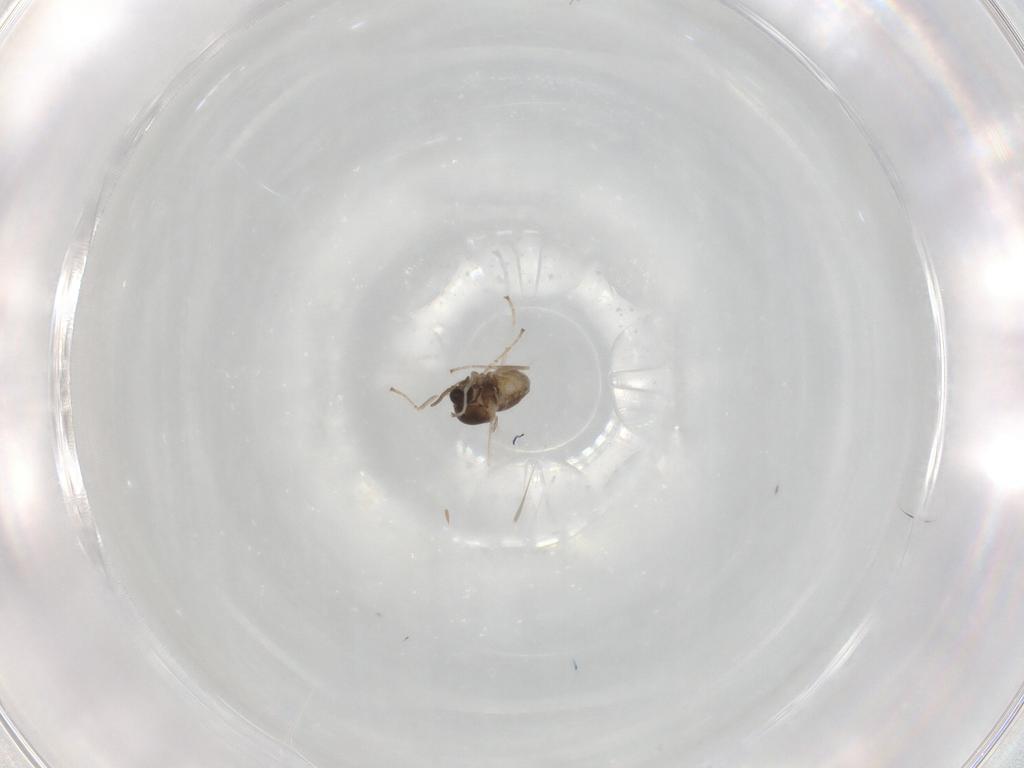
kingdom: Animalia
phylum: Arthropoda
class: Insecta
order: Diptera
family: Cecidomyiidae
